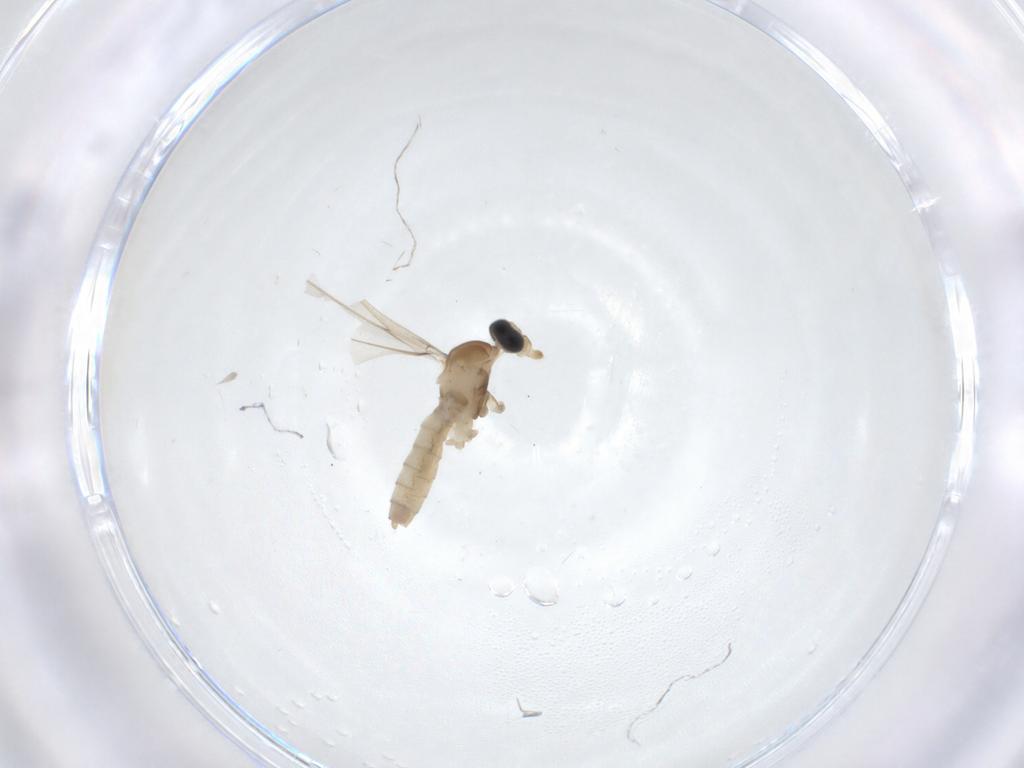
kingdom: Animalia
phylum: Arthropoda
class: Insecta
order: Diptera
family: Cecidomyiidae
